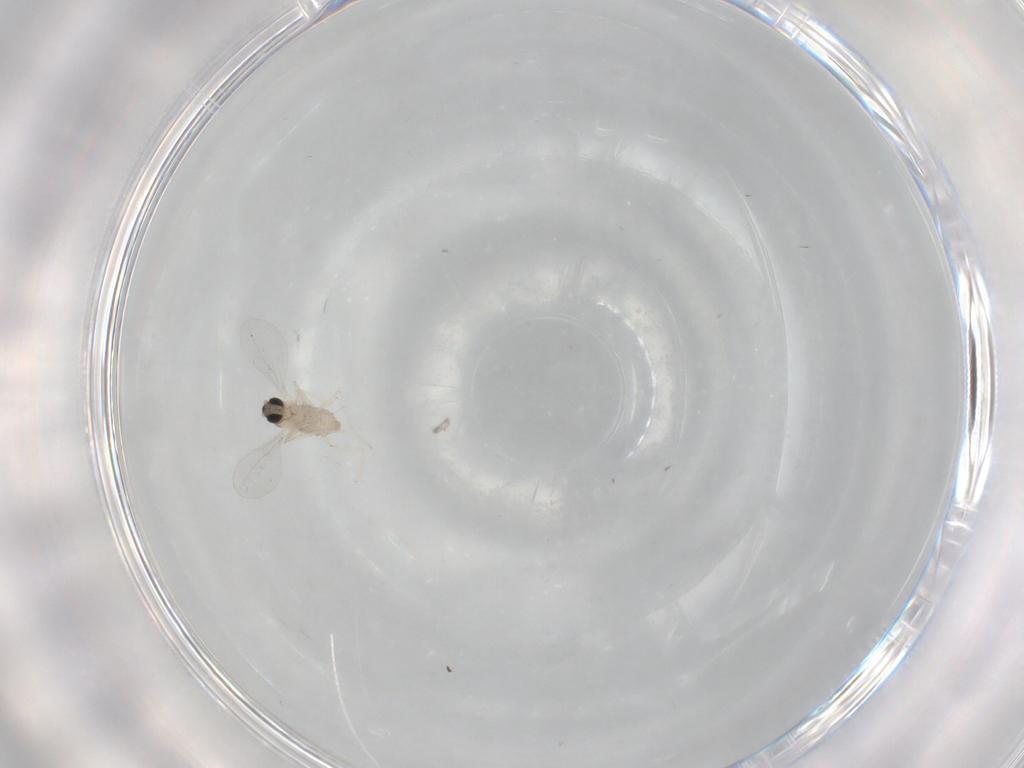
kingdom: Animalia
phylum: Arthropoda
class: Insecta
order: Diptera
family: Cecidomyiidae
